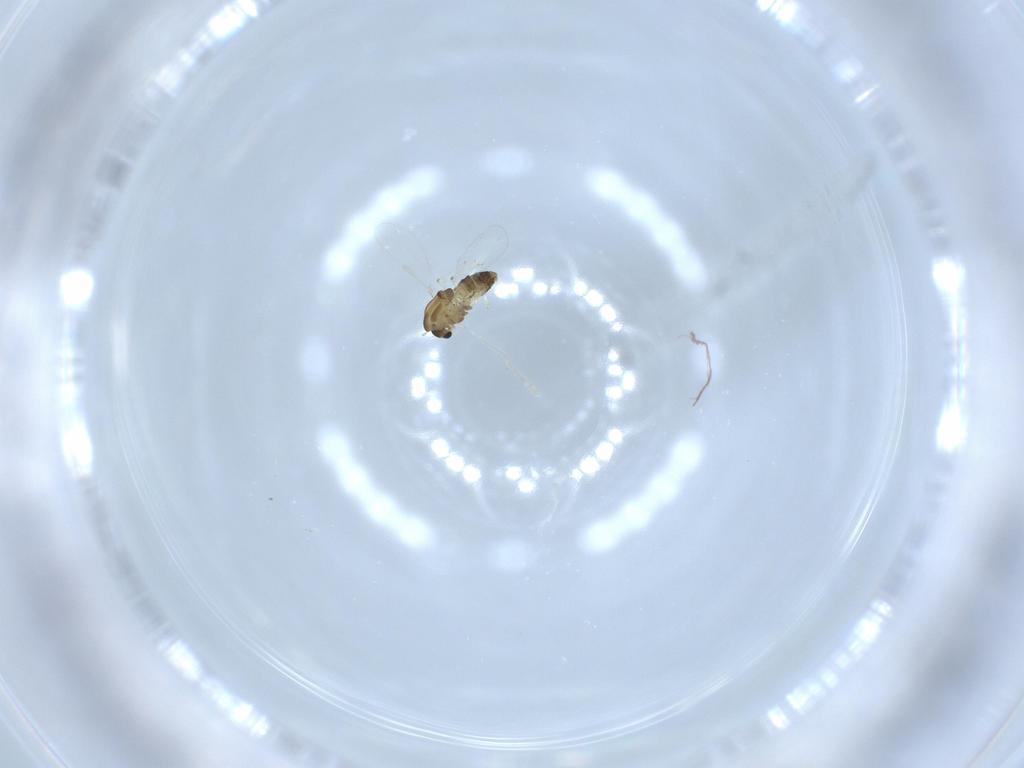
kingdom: Animalia
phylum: Arthropoda
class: Insecta
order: Diptera
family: Chironomidae
